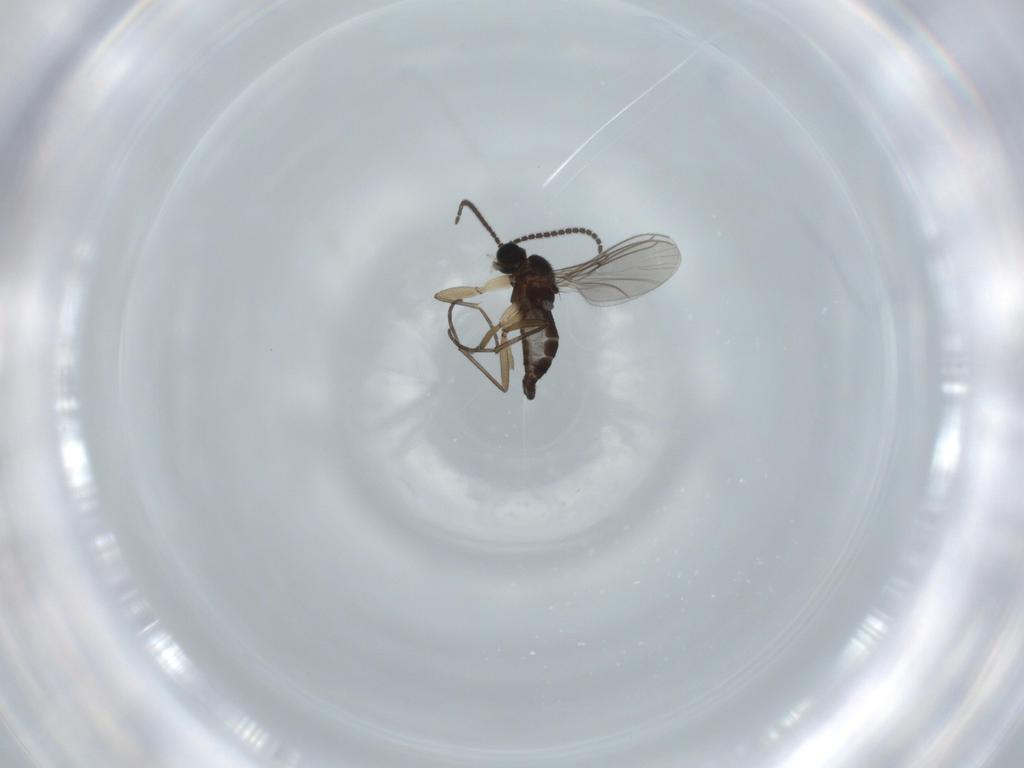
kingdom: Animalia
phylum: Arthropoda
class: Insecta
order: Diptera
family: Sciaridae
